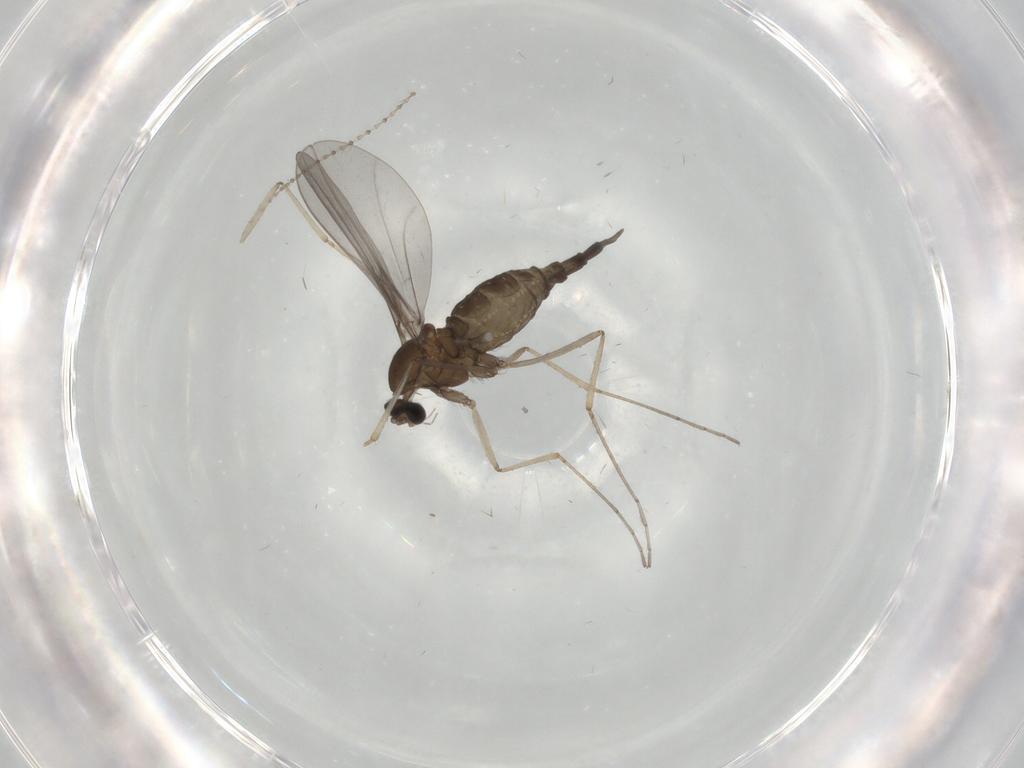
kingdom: Animalia
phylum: Arthropoda
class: Insecta
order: Diptera
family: Cecidomyiidae
